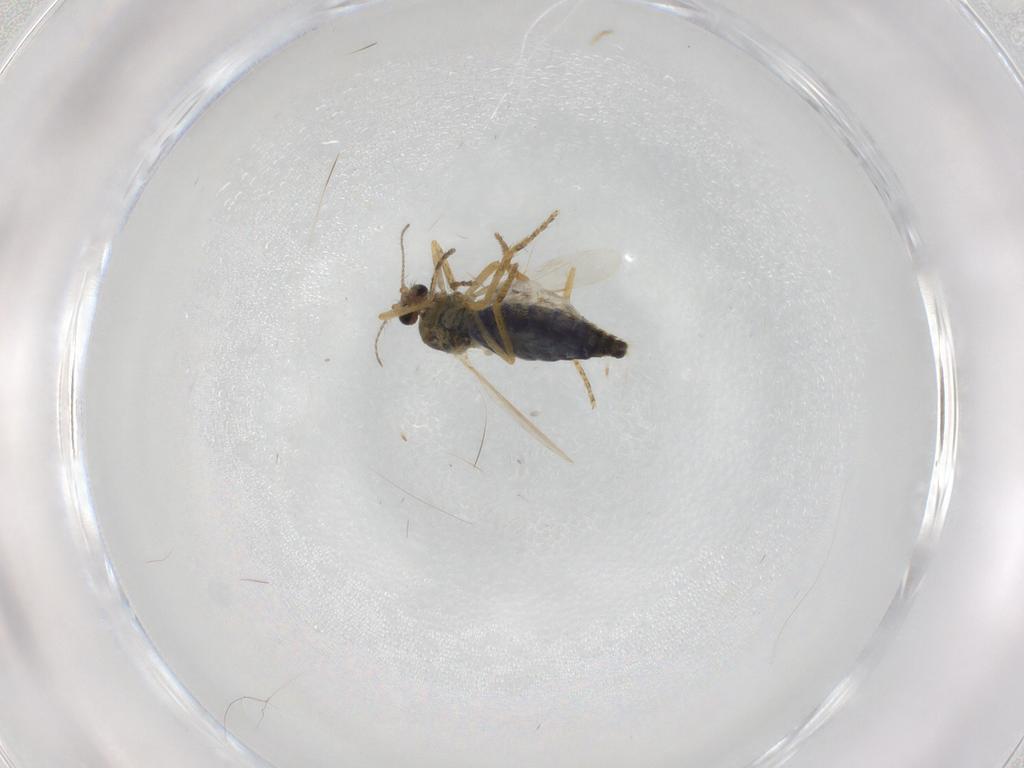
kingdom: Animalia
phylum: Arthropoda
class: Insecta
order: Diptera
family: Ceratopogonidae
